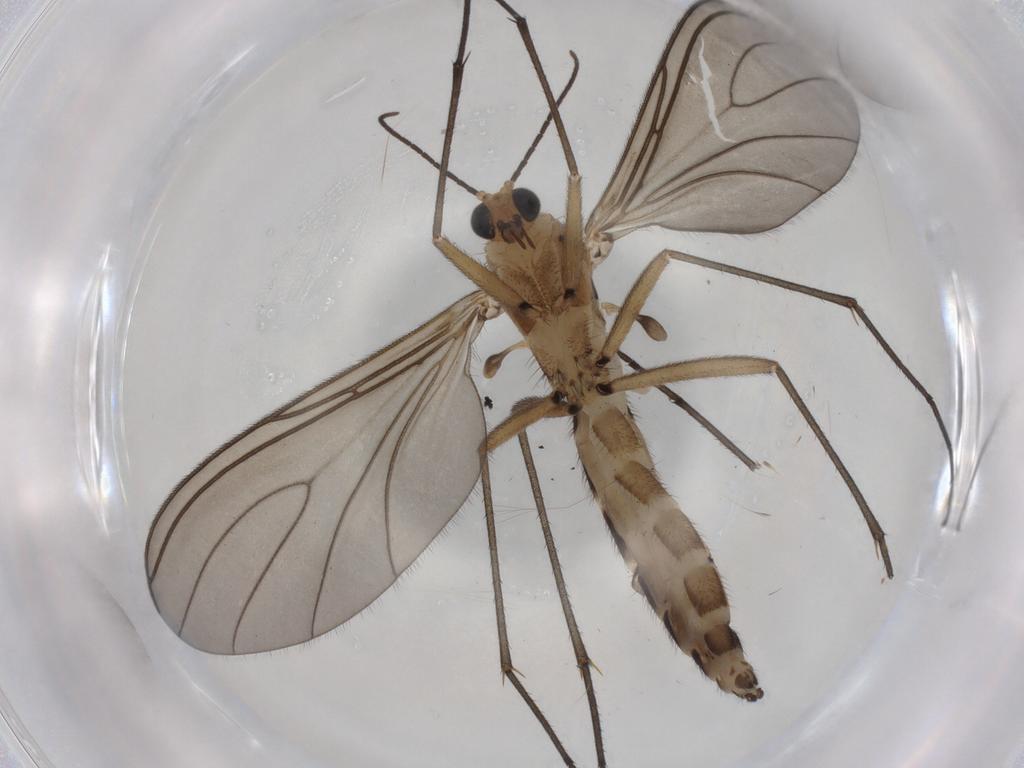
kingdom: Animalia
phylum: Arthropoda
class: Insecta
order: Diptera
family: Sciaridae
